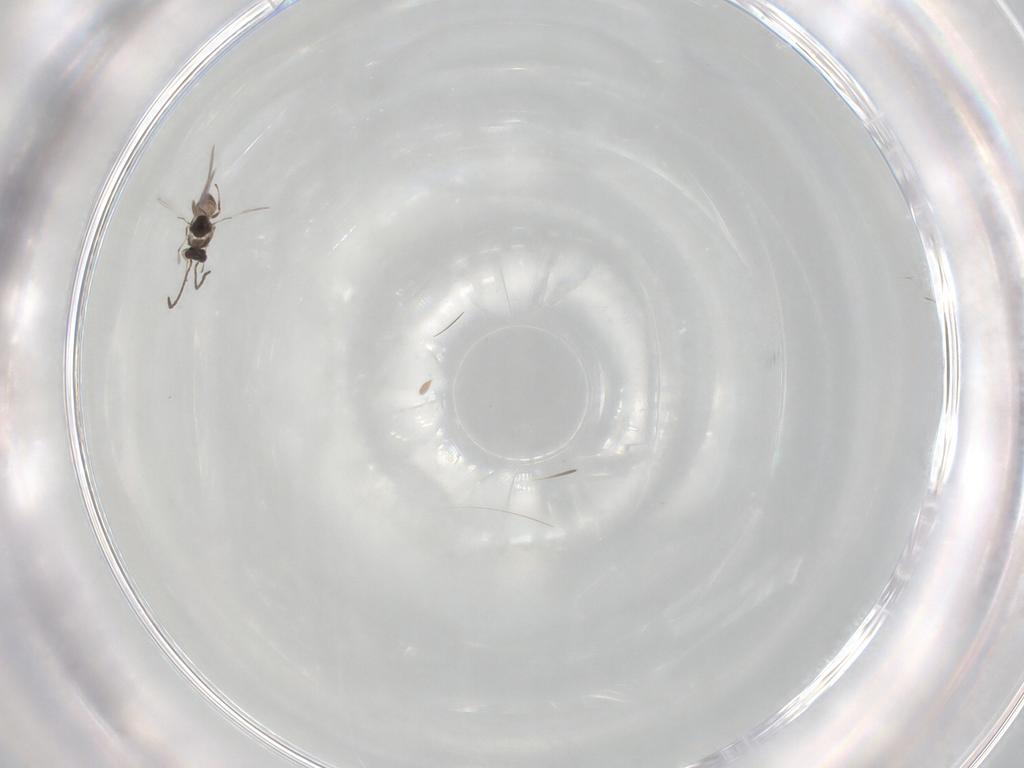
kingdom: Animalia
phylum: Arthropoda
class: Insecta
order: Hymenoptera
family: Formicidae
